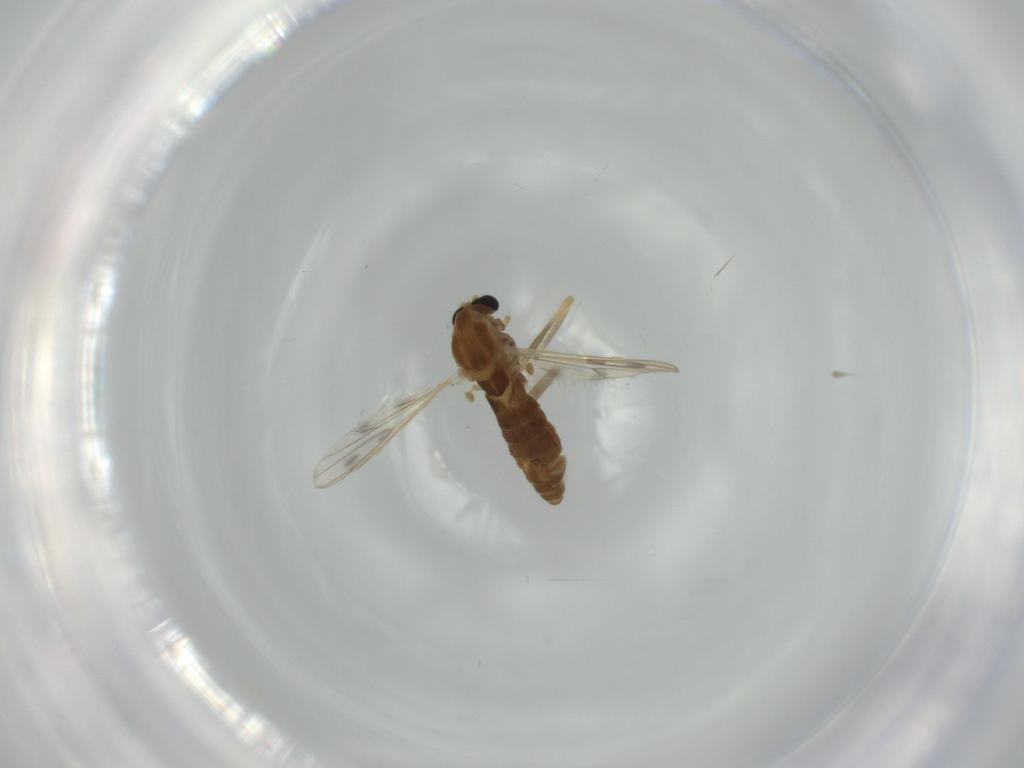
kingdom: Animalia
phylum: Arthropoda
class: Insecta
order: Diptera
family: Cecidomyiidae
